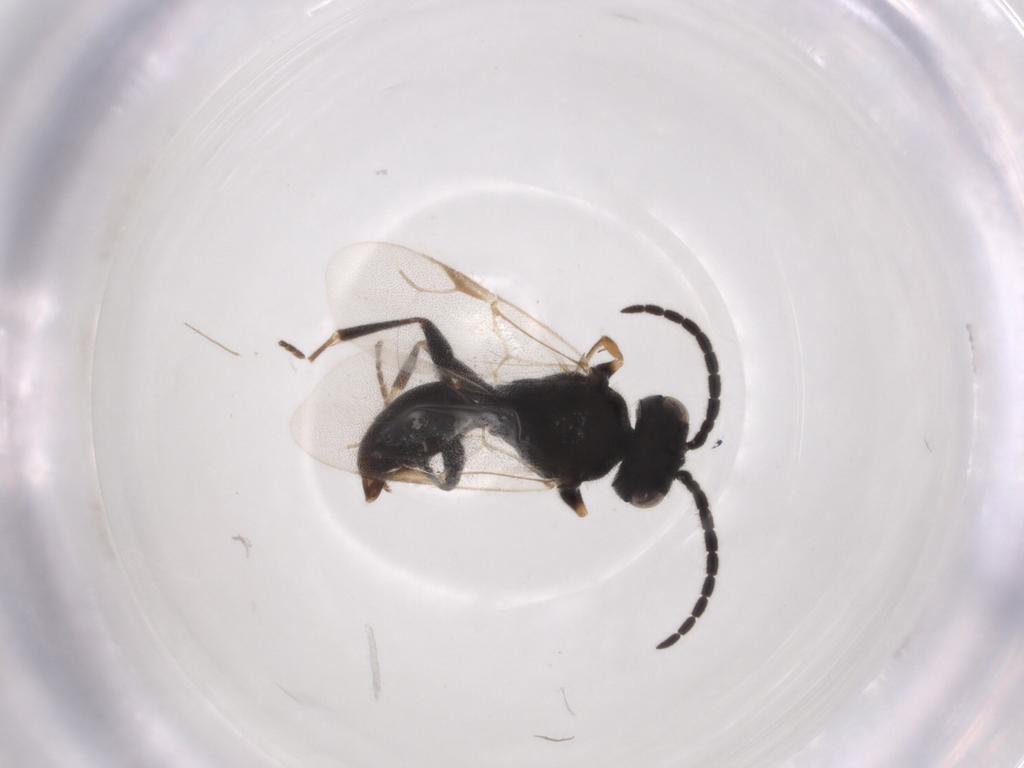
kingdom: Animalia
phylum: Arthropoda
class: Insecta
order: Hymenoptera
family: Dryinidae
